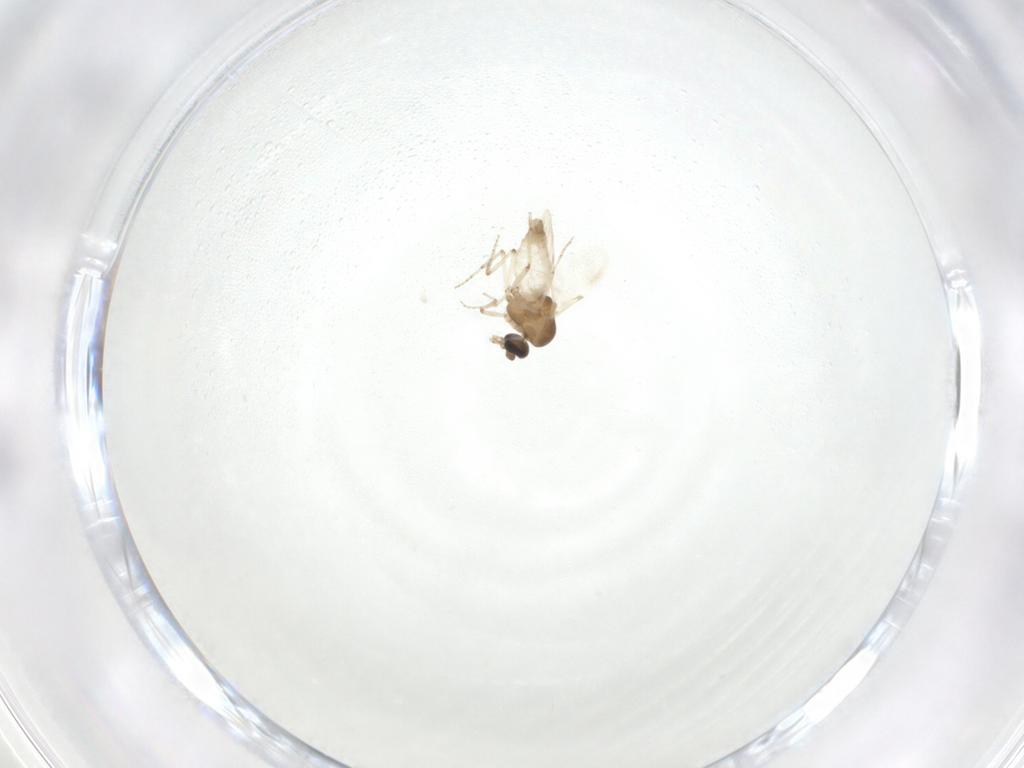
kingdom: Animalia
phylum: Arthropoda
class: Insecta
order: Diptera
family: Ceratopogonidae
